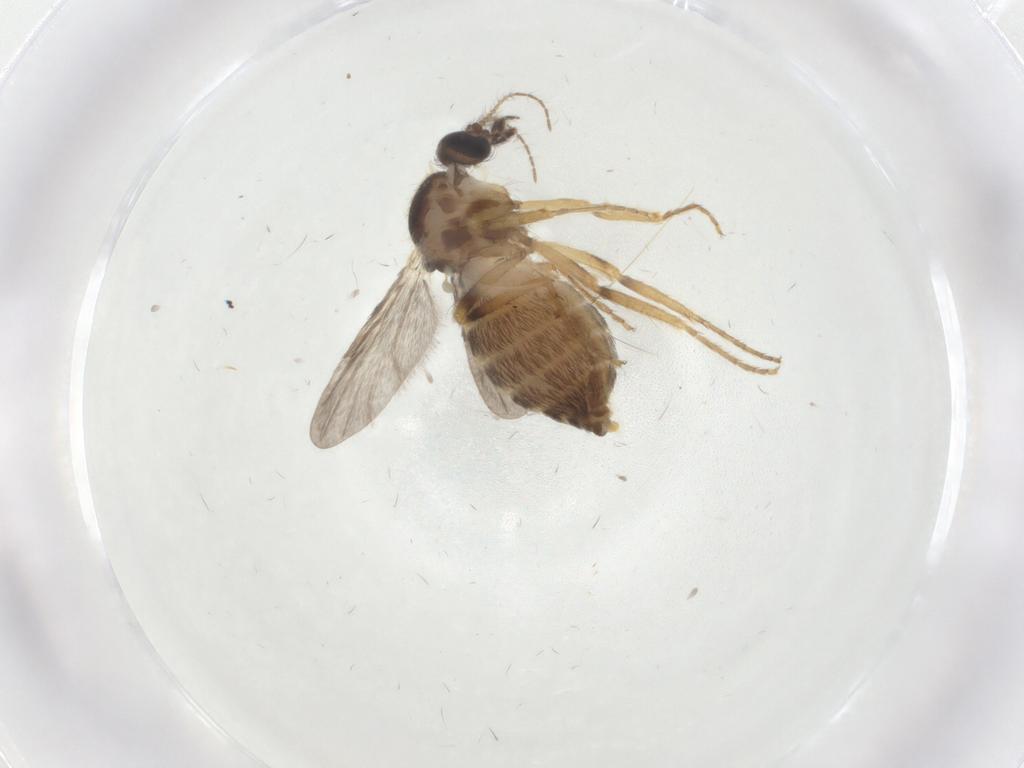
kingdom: Animalia
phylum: Arthropoda
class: Insecta
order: Diptera
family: Ceratopogonidae
